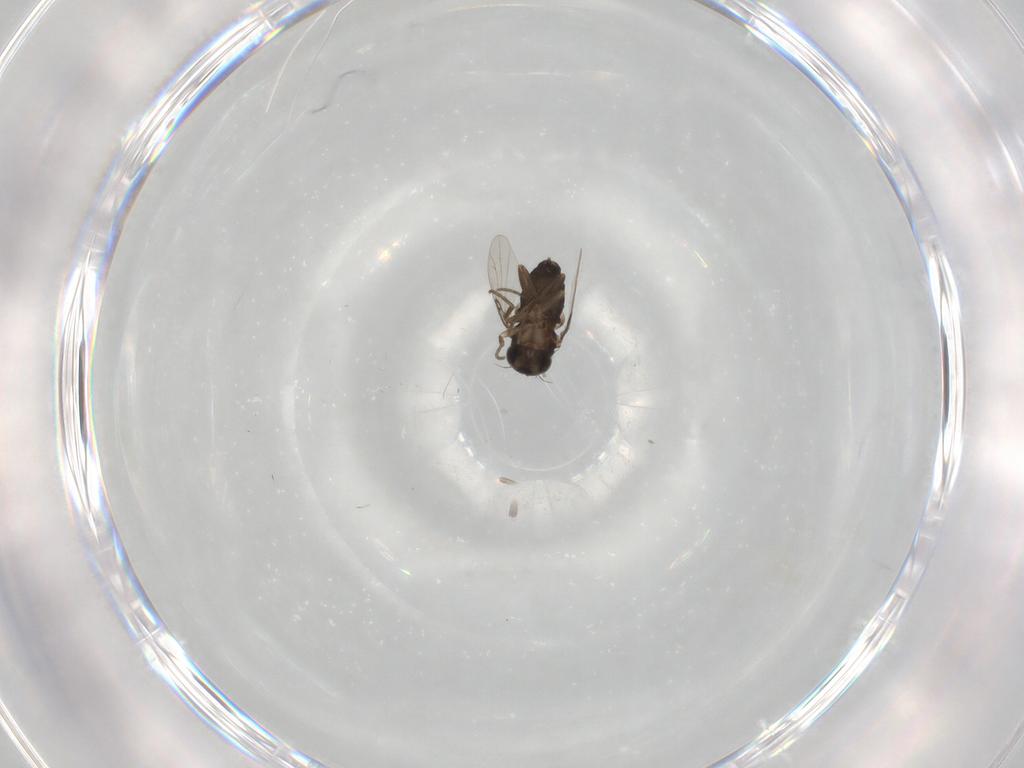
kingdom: Animalia
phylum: Arthropoda
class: Insecta
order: Diptera
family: Phoridae
